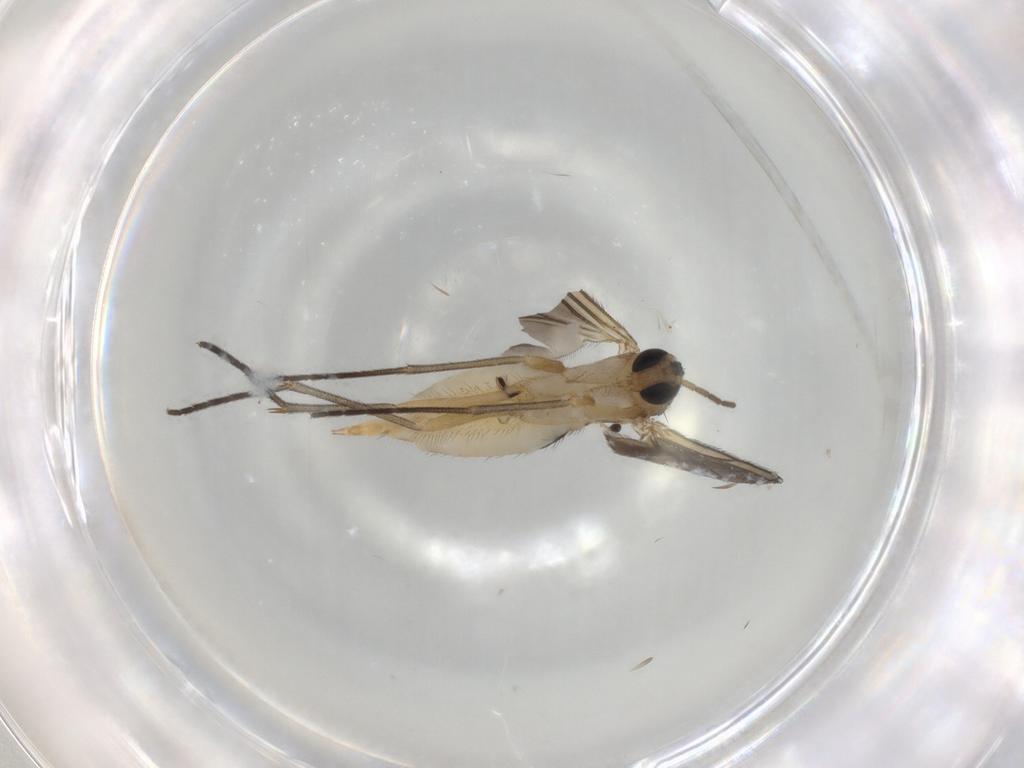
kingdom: Animalia
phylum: Arthropoda
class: Insecta
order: Diptera
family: Sciaridae
